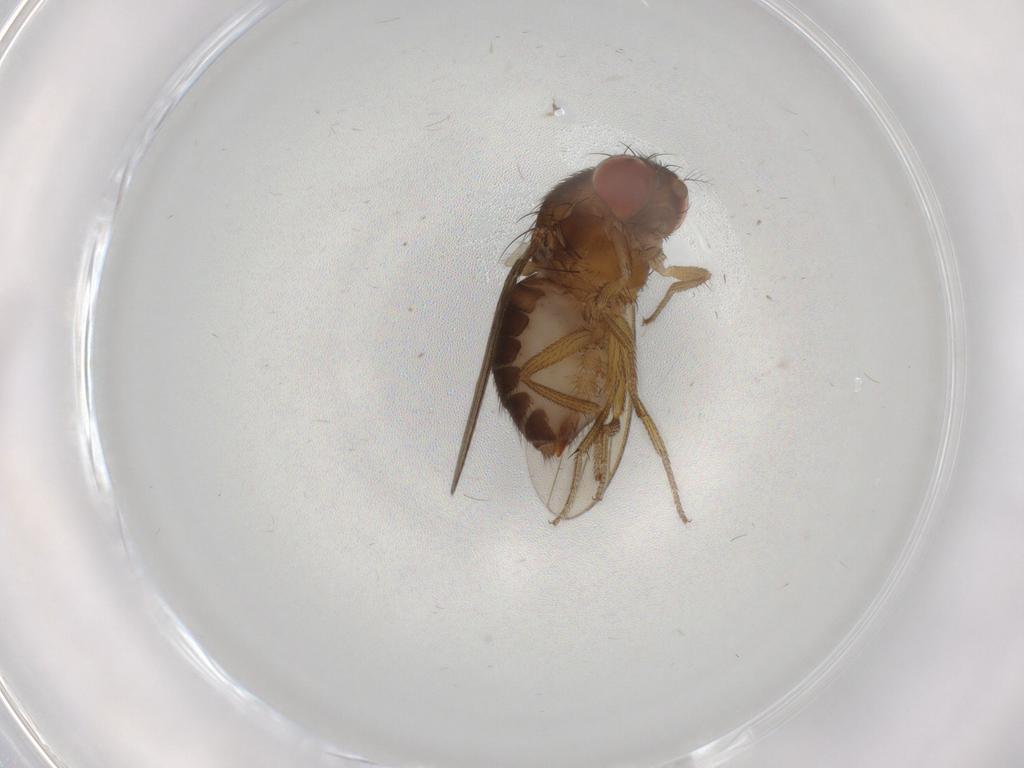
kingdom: Animalia
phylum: Arthropoda
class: Insecta
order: Diptera
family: Drosophilidae
